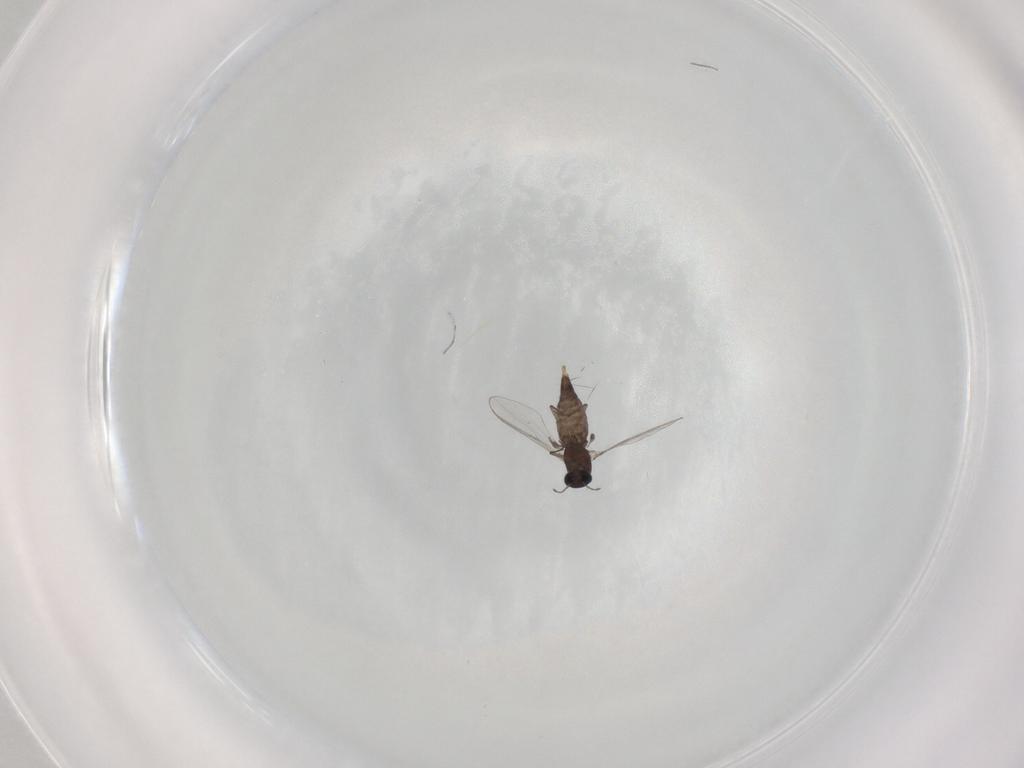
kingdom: Animalia
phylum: Arthropoda
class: Insecta
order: Diptera
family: Chironomidae
